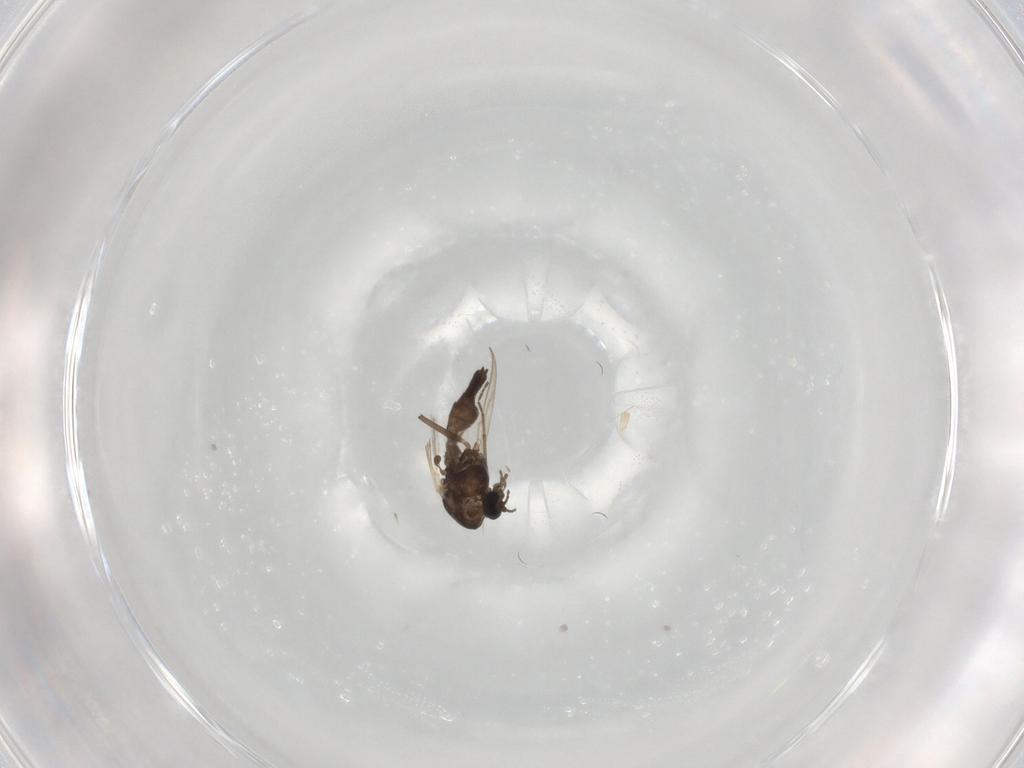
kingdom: Animalia
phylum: Arthropoda
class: Insecta
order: Diptera
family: Chironomidae
